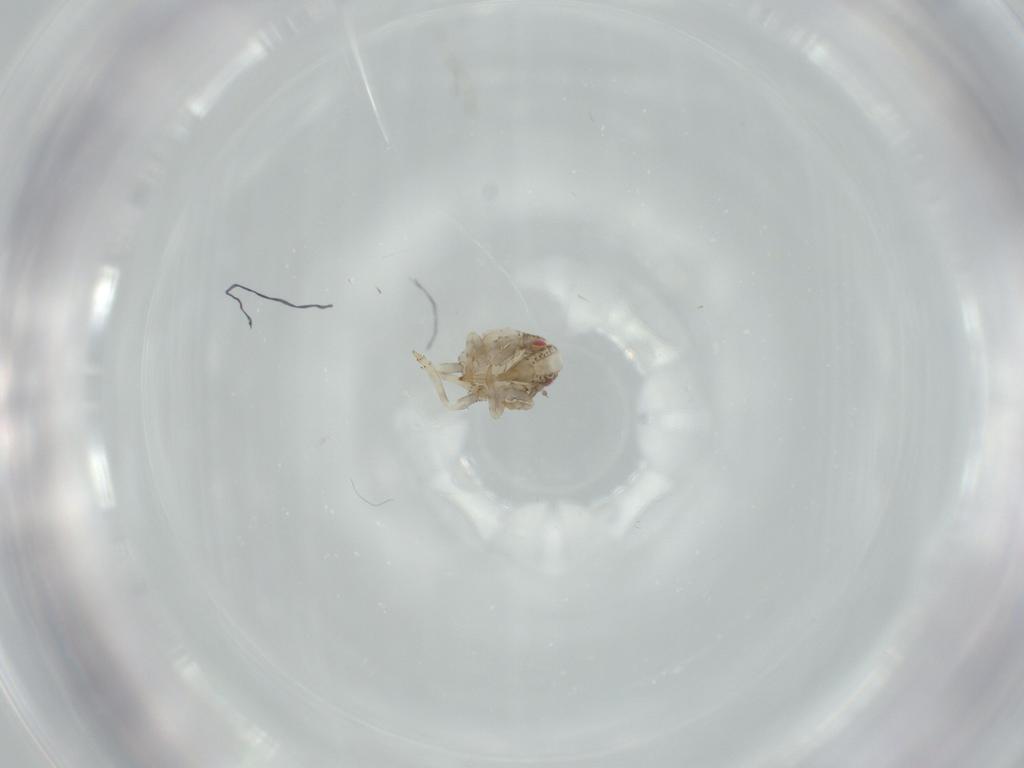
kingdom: Animalia
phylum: Arthropoda
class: Insecta
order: Hemiptera
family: Acanaloniidae
